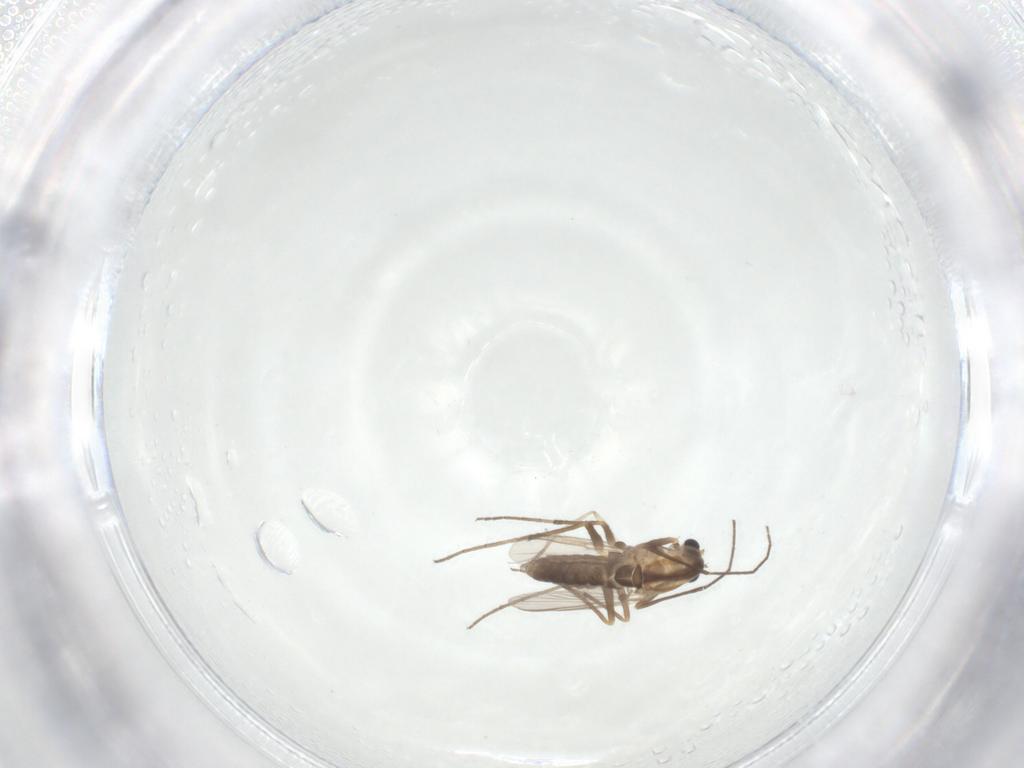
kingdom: Animalia
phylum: Arthropoda
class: Insecta
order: Diptera
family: Chironomidae
